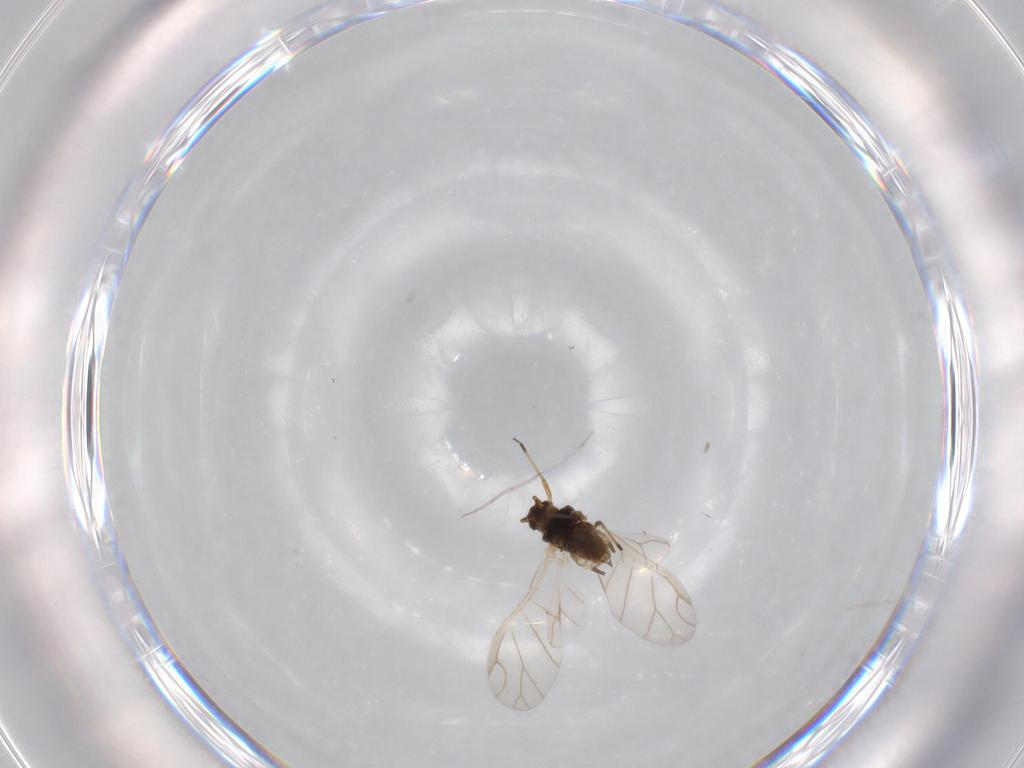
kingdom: Animalia
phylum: Arthropoda
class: Insecta
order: Hemiptera
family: Aphididae
